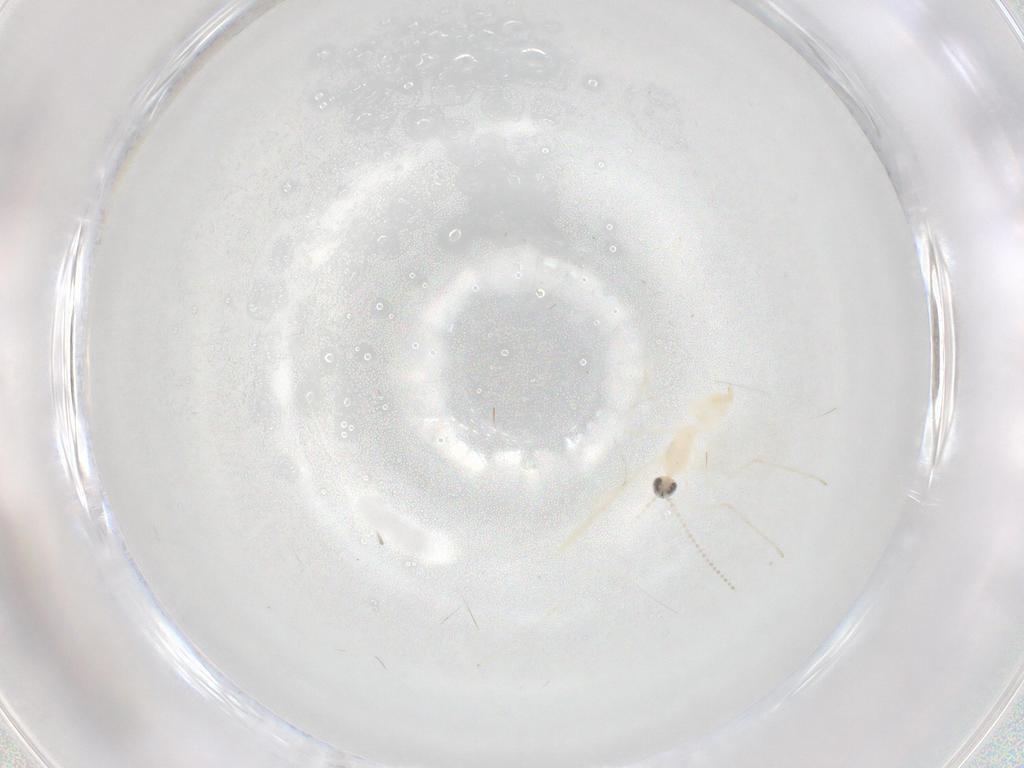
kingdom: Animalia
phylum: Arthropoda
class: Insecta
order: Diptera
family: Cecidomyiidae
